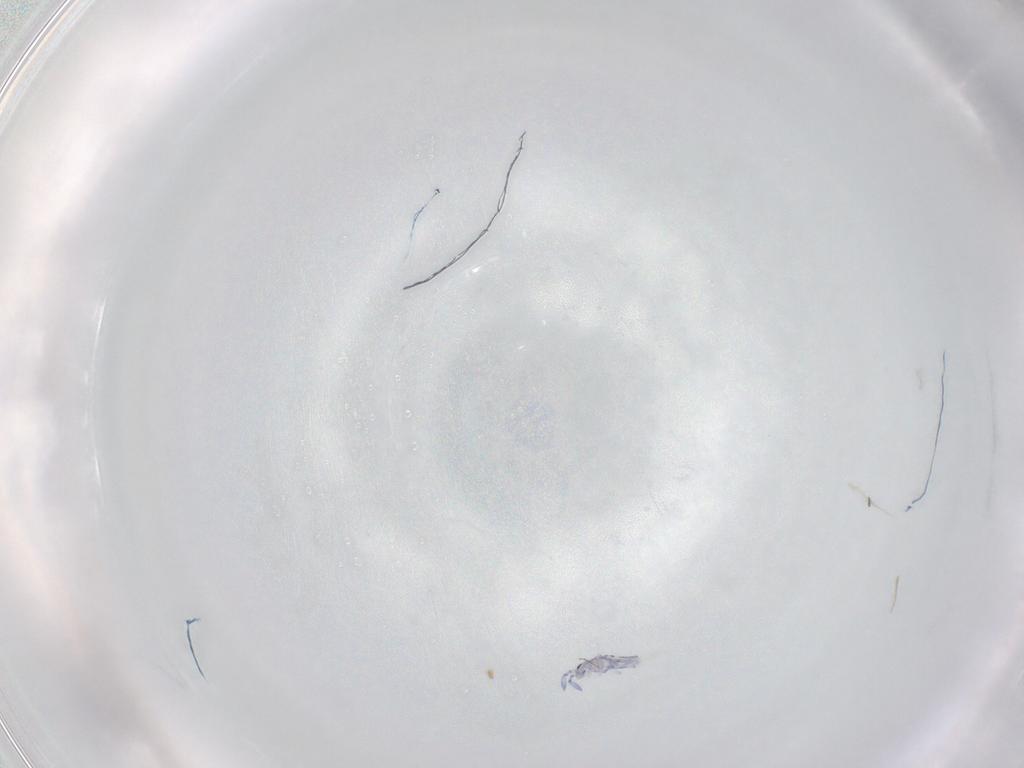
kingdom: Animalia
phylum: Arthropoda
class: Collembola
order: Entomobryomorpha
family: Entomobryidae
